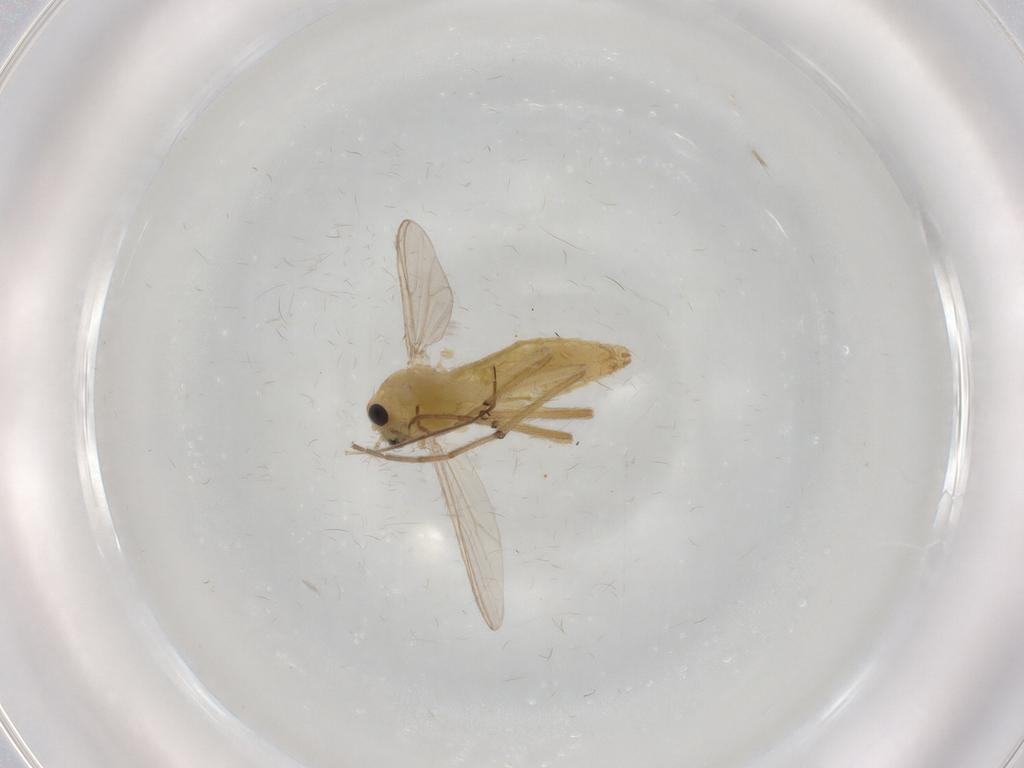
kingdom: Animalia
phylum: Arthropoda
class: Insecta
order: Diptera
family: Chironomidae
